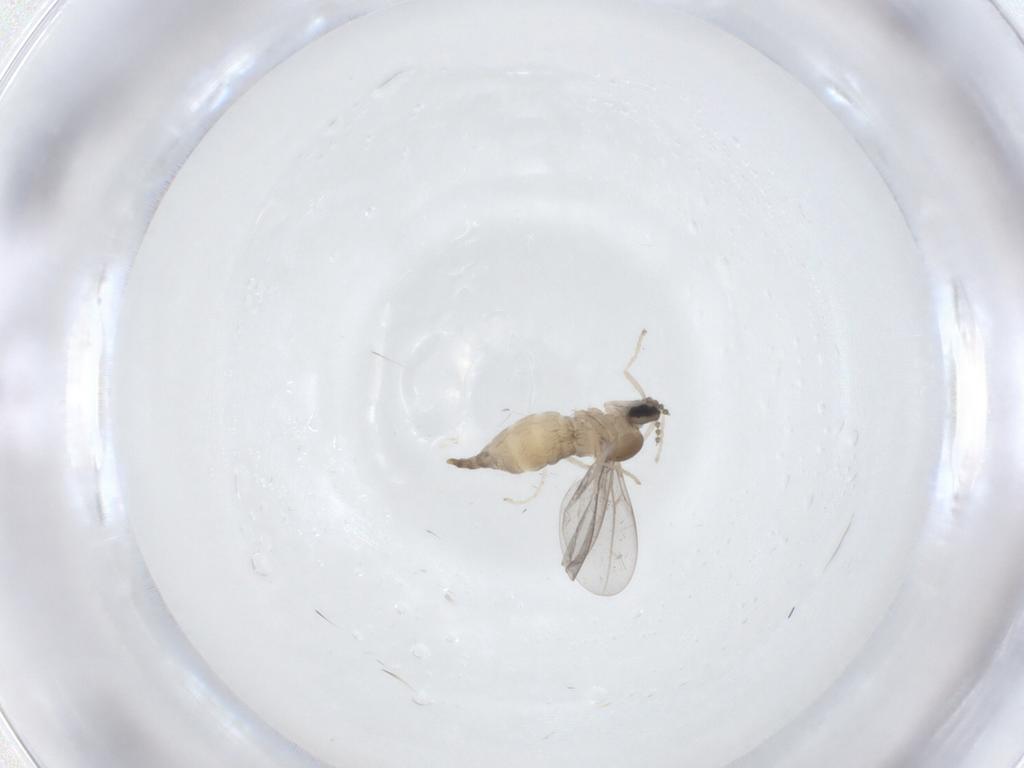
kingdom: Animalia
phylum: Arthropoda
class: Insecta
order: Diptera
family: Cecidomyiidae
